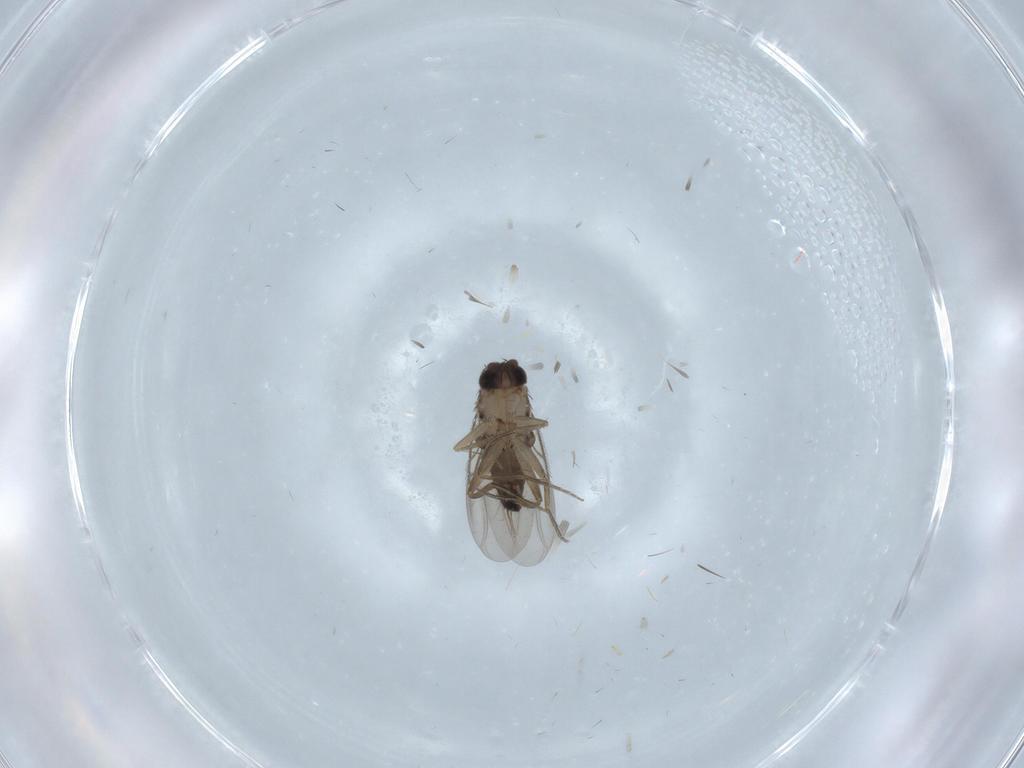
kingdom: Animalia
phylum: Arthropoda
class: Insecta
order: Diptera
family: Phoridae
